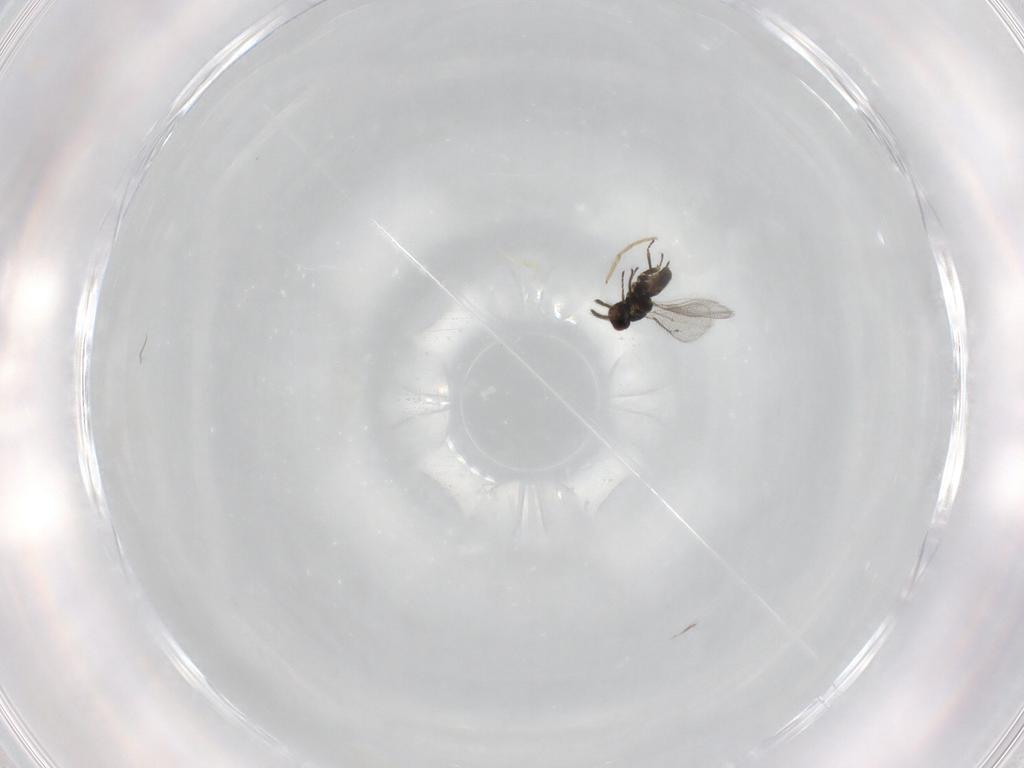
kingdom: Animalia
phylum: Arthropoda
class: Insecta
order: Hymenoptera
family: Eulophidae
